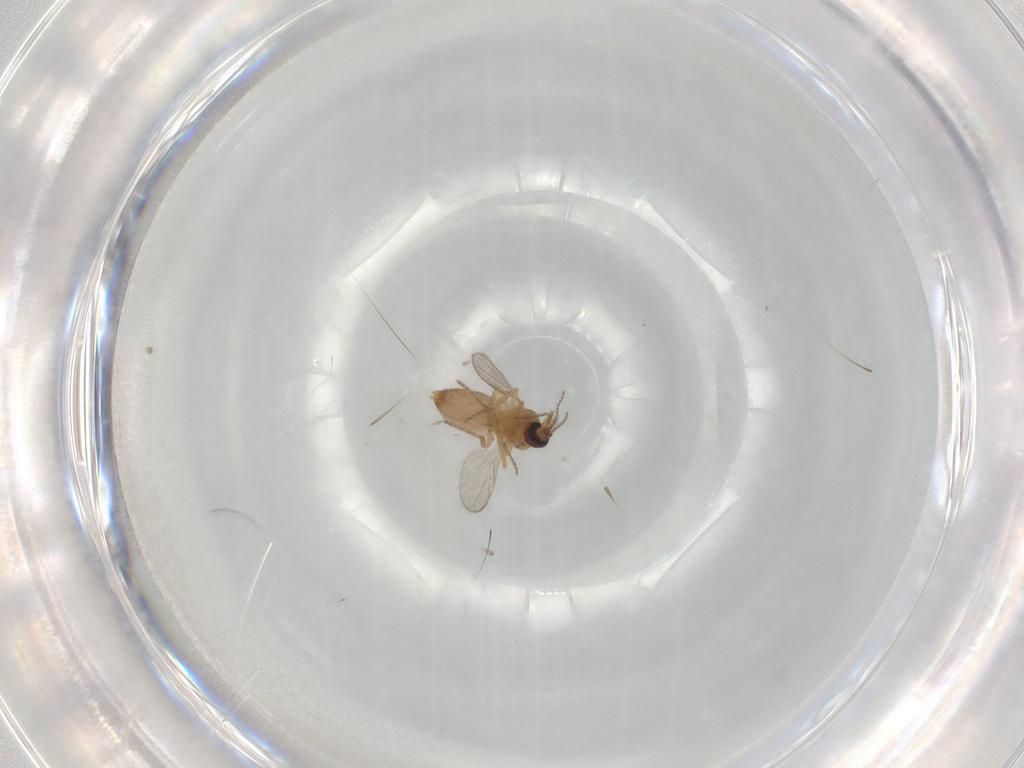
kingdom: Animalia
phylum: Arthropoda
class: Insecta
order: Diptera
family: Ceratopogonidae
